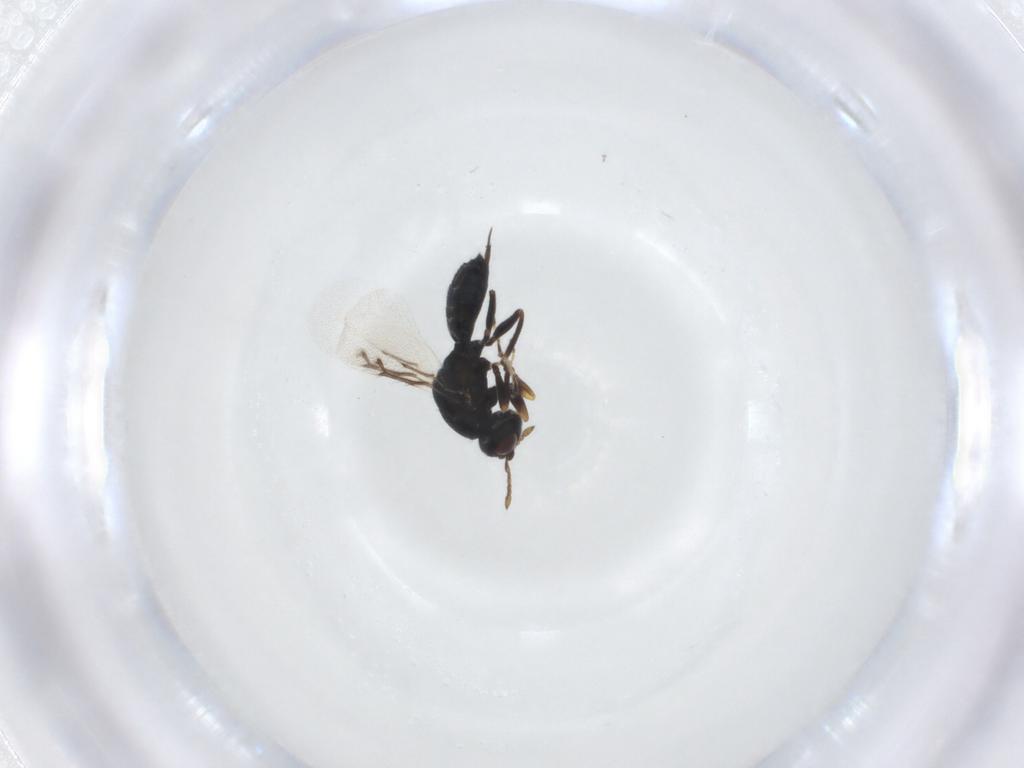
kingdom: Animalia
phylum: Arthropoda
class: Insecta
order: Hymenoptera
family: Eulophidae
